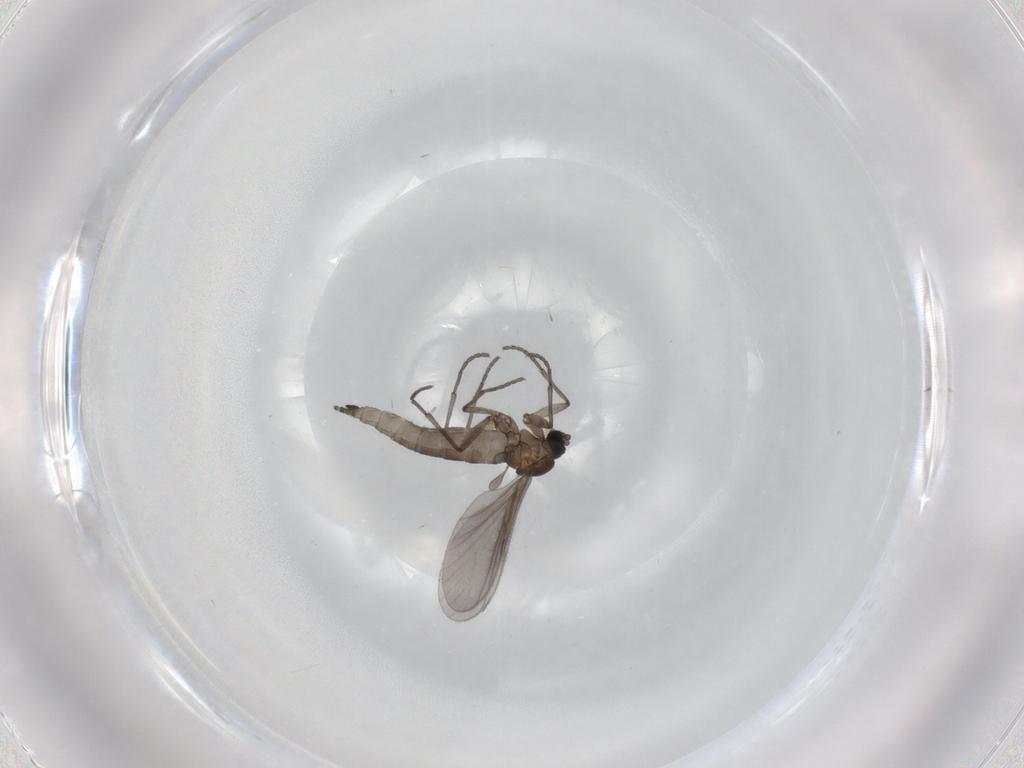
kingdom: Animalia
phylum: Arthropoda
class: Insecta
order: Diptera
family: Sciaridae
